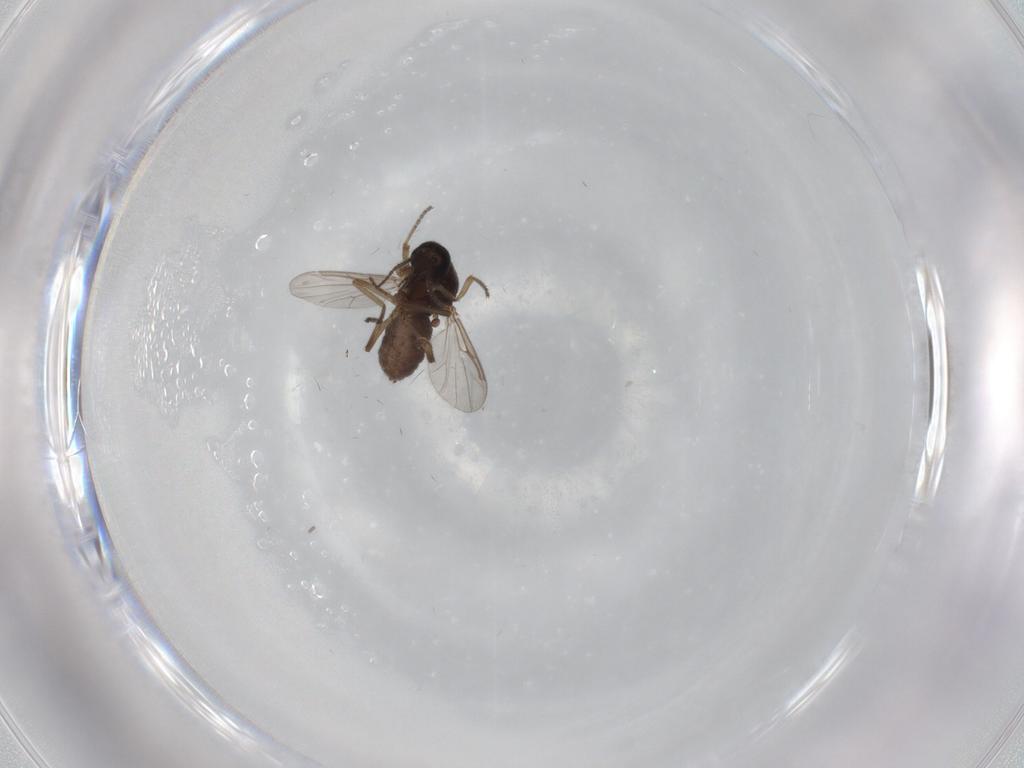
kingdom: Animalia
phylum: Arthropoda
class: Insecta
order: Diptera
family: Ceratopogonidae
